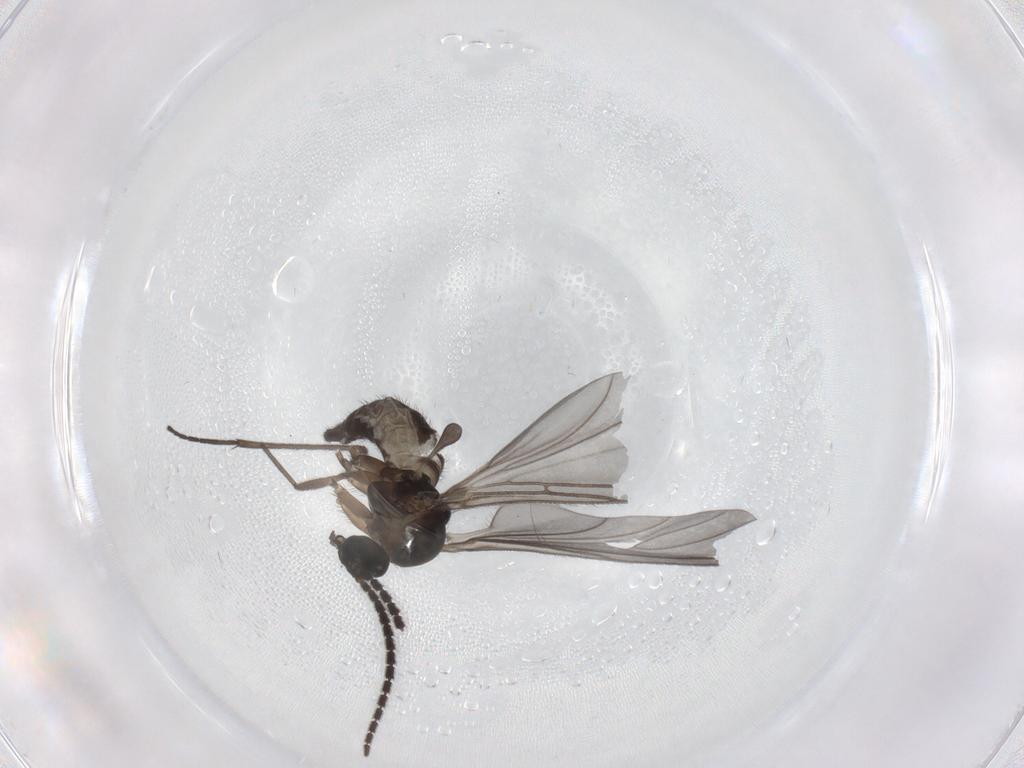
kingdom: Animalia
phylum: Arthropoda
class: Insecta
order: Diptera
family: Sciaridae
